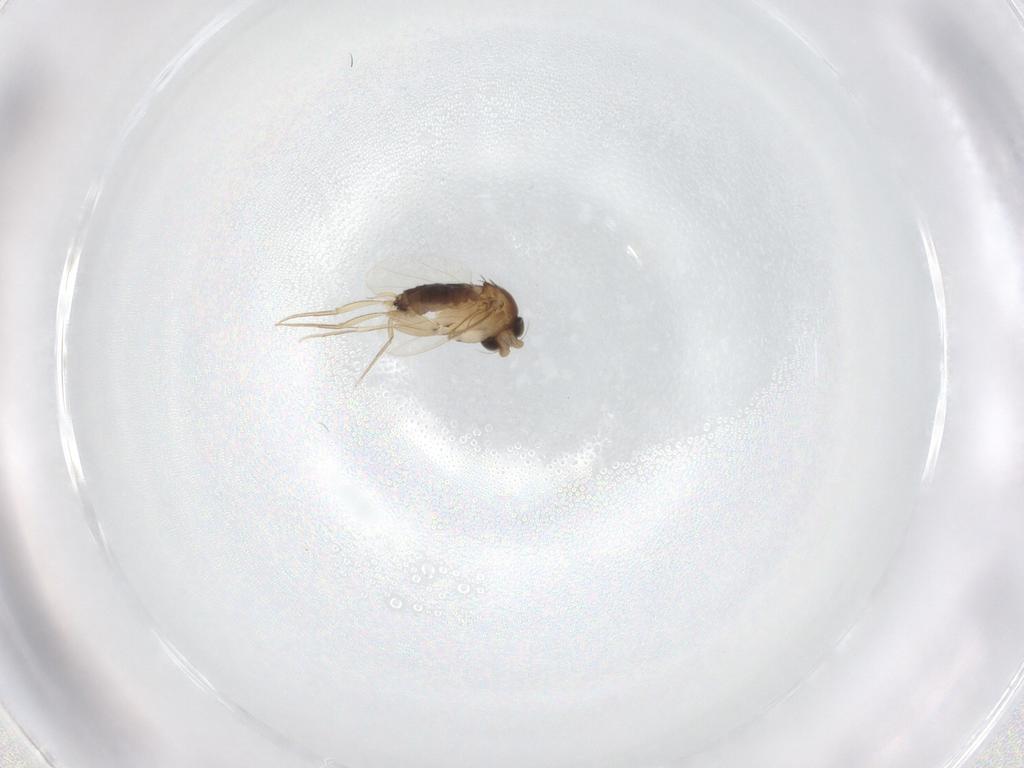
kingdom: Animalia
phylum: Arthropoda
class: Insecta
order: Diptera
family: Phoridae
